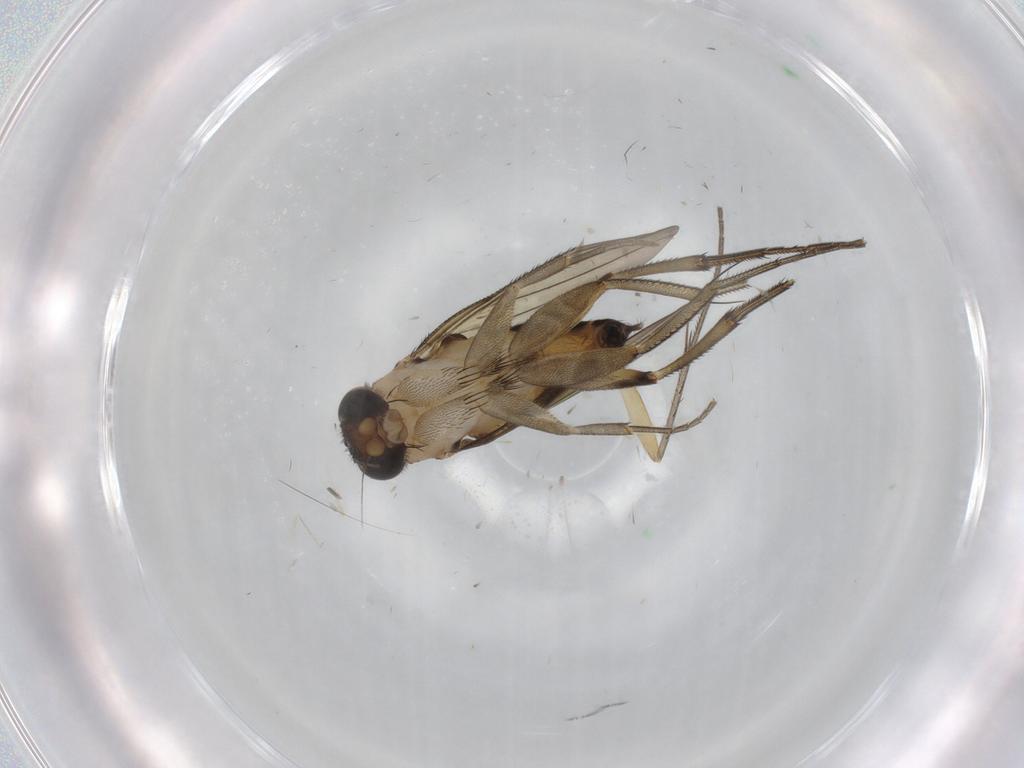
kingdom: Animalia
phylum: Arthropoda
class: Insecta
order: Diptera
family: Phoridae
